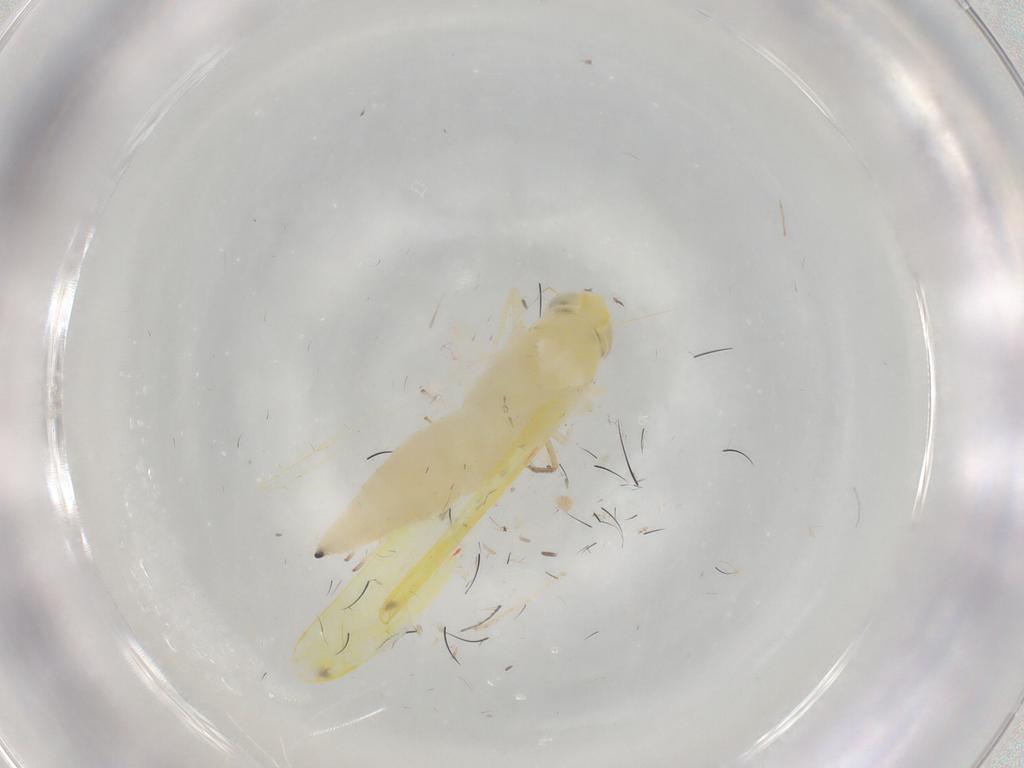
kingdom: Animalia
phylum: Arthropoda
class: Insecta
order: Hemiptera
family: Cicadellidae
